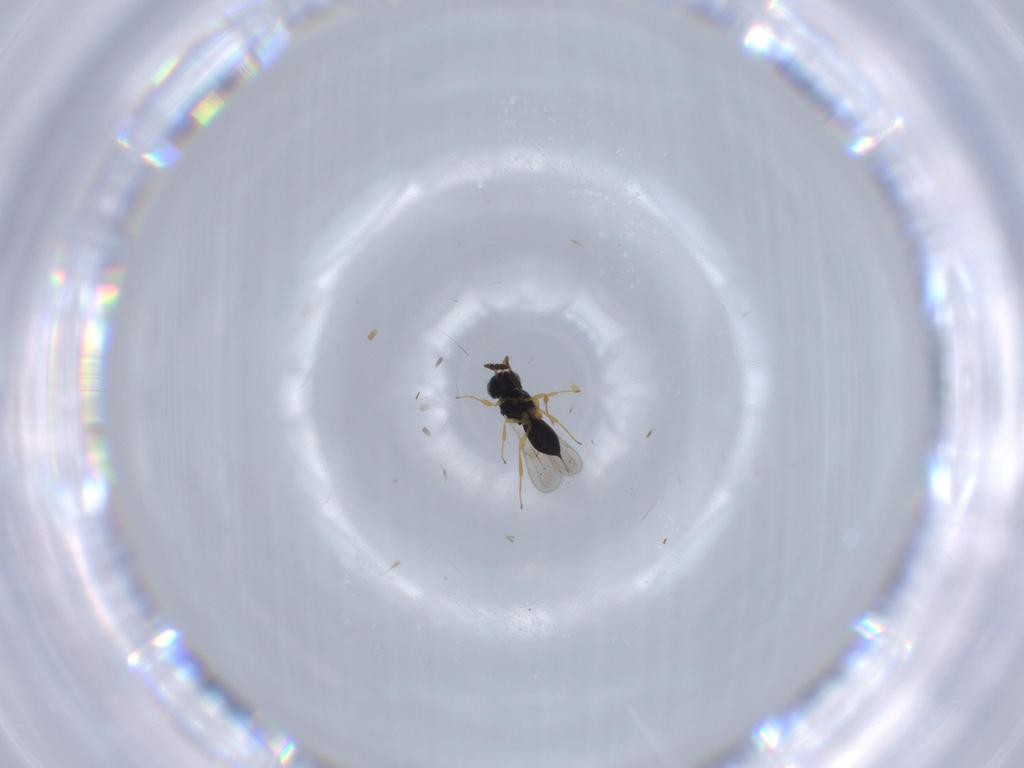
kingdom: Animalia
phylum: Arthropoda
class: Insecta
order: Hymenoptera
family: Scelionidae
